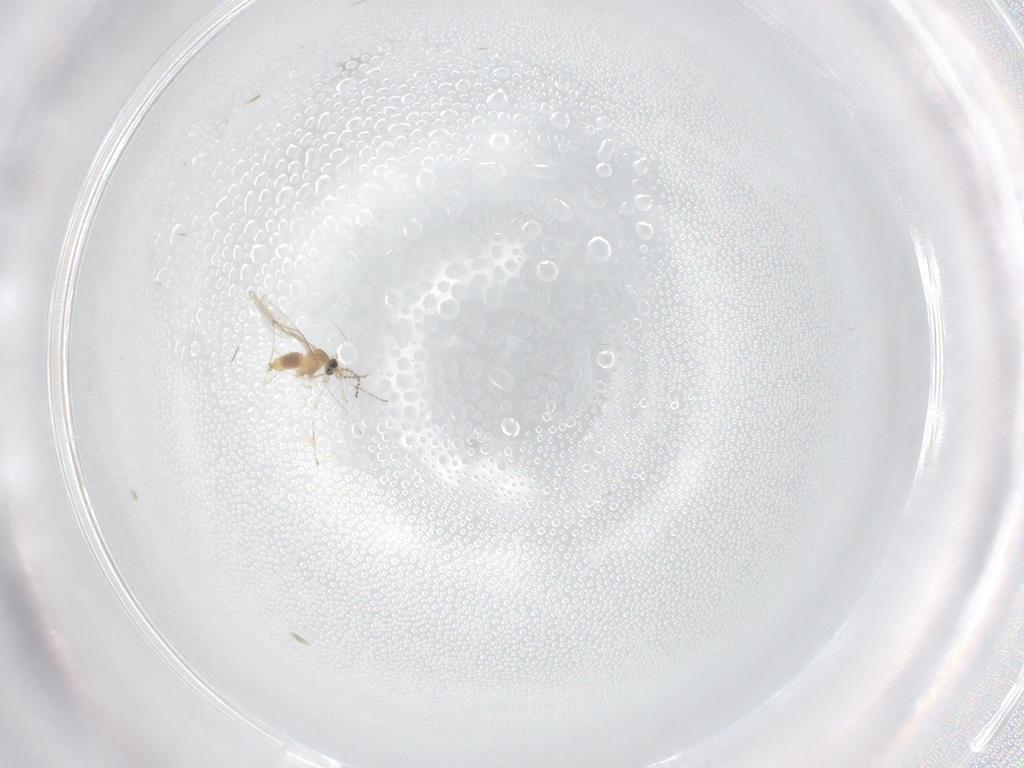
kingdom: Animalia
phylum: Arthropoda
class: Insecta
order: Diptera
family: Cecidomyiidae
